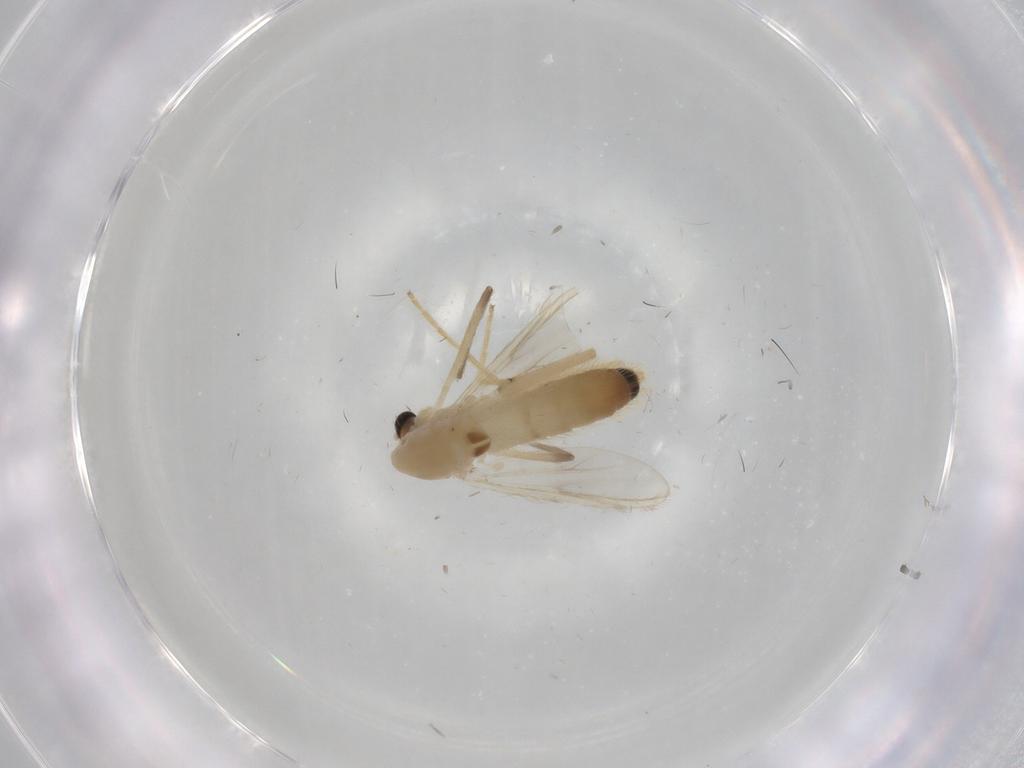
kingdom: Animalia
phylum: Arthropoda
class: Insecta
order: Diptera
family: Chironomidae
